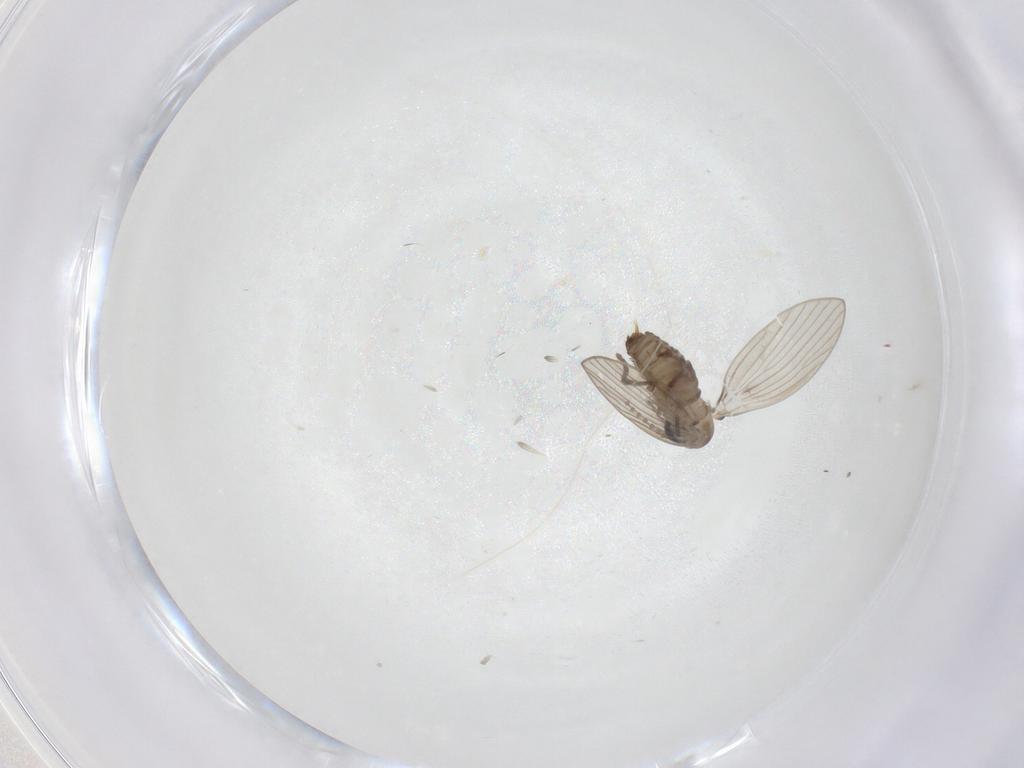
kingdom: Animalia
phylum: Arthropoda
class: Insecta
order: Diptera
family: Psychodidae
